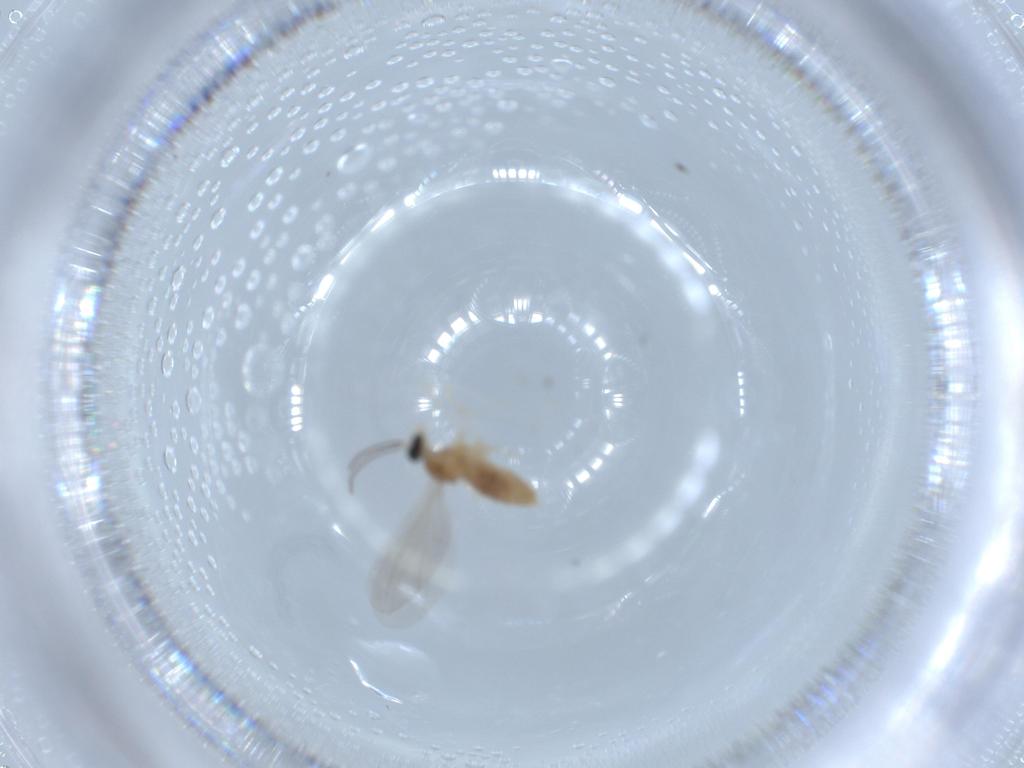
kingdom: Animalia
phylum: Arthropoda
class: Insecta
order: Diptera
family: Cecidomyiidae
